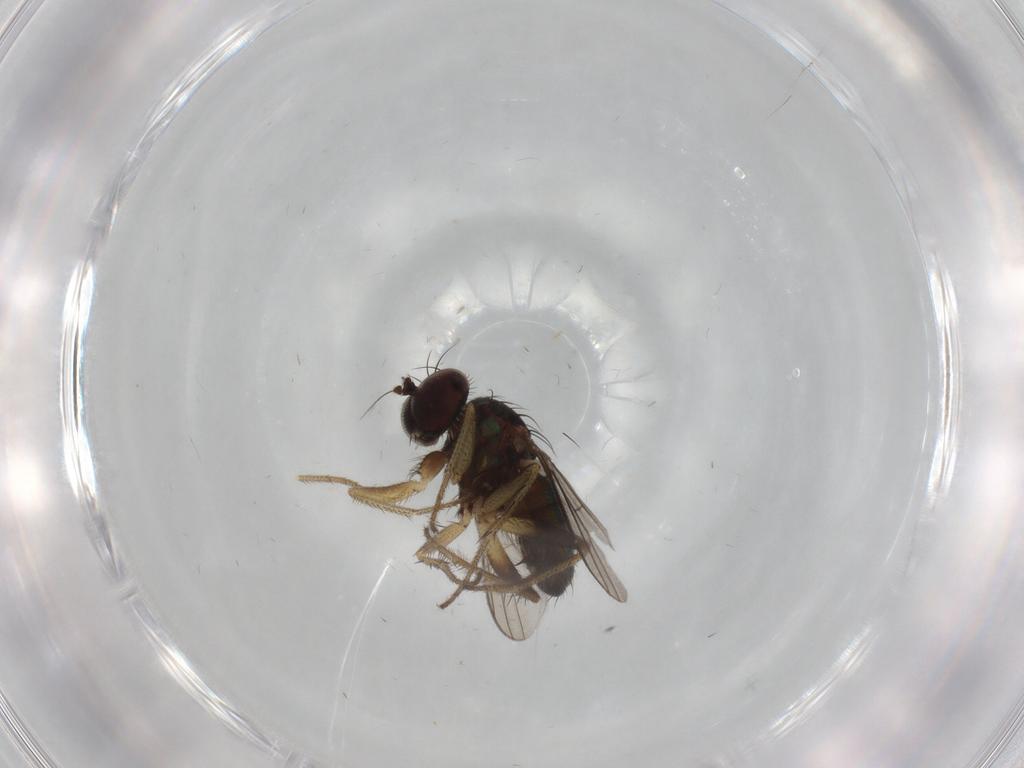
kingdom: Animalia
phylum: Arthropoda
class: Insecta
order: Diptera
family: Dolichopodidae
